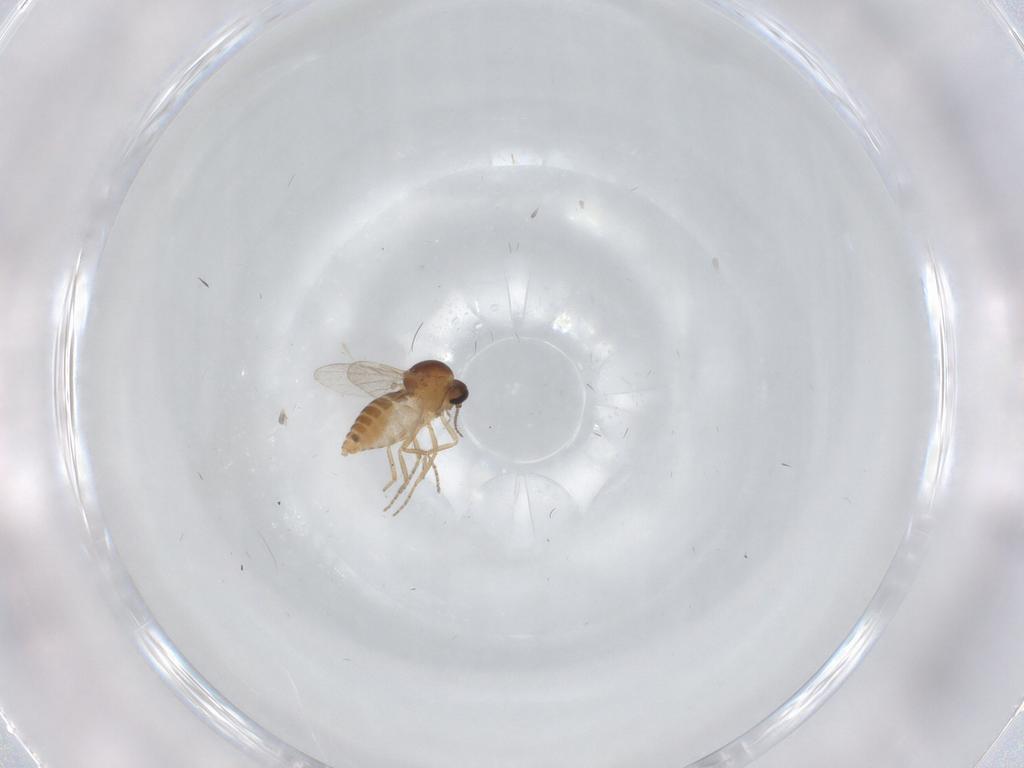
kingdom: Animalia
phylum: Arthropoda
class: Insecta
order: Diptera
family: Ceratopogonidae
